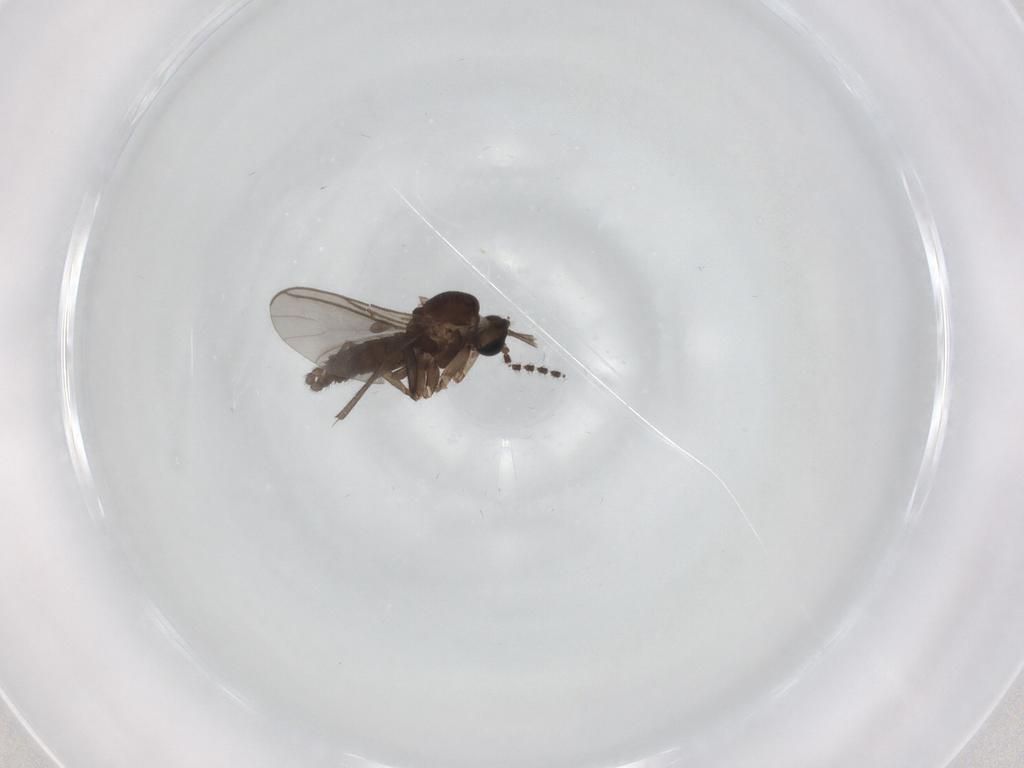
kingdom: Animalia
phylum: Arthropoda
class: Insecta
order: Diptera
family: Sciaridae
